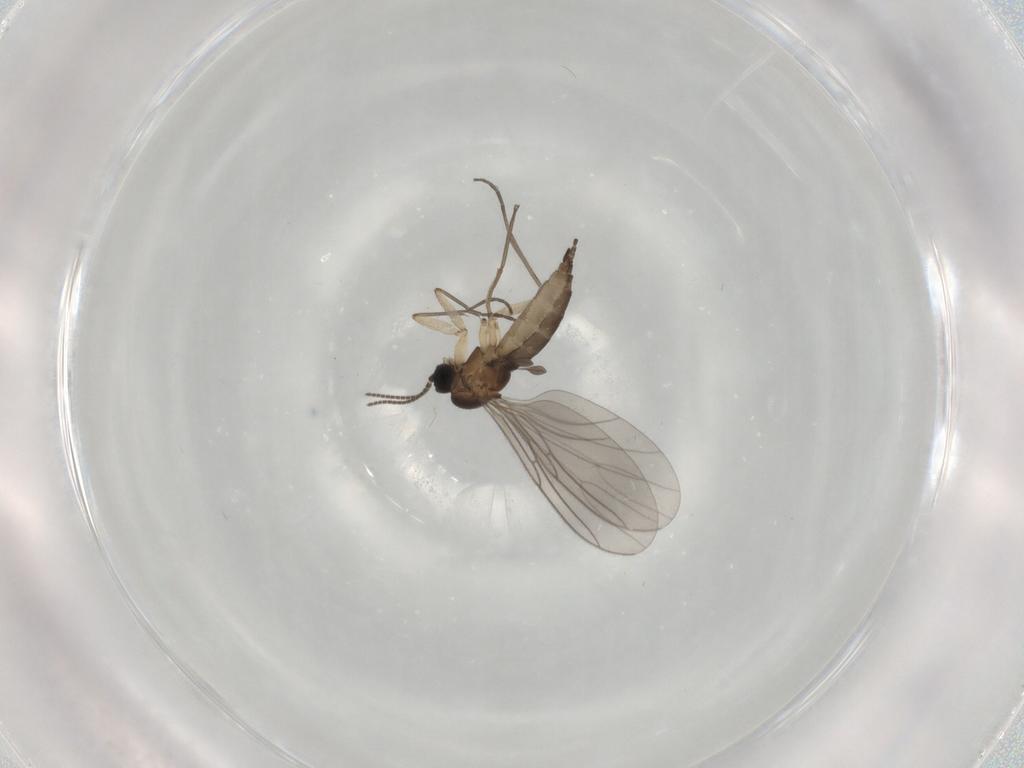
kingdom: Animalia
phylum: Arthropoda
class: Insecta
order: Diptera
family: Sciaridae
